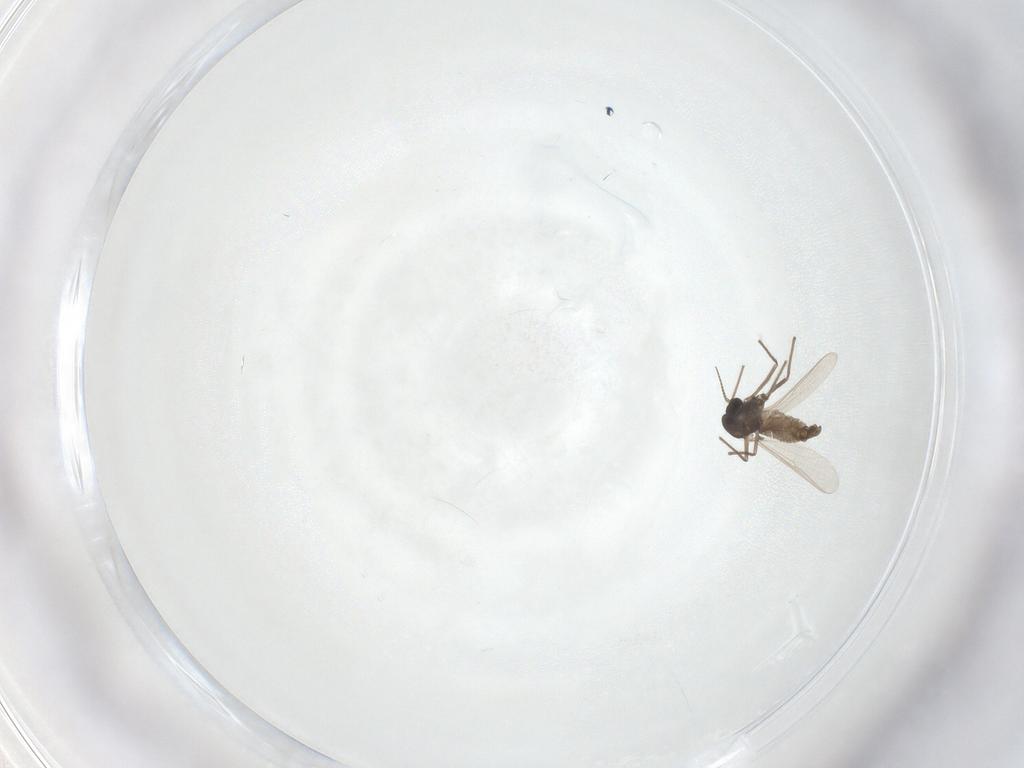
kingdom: Animalia
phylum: Arthropoda
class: Insecta
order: Diptera
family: Chironomidae
